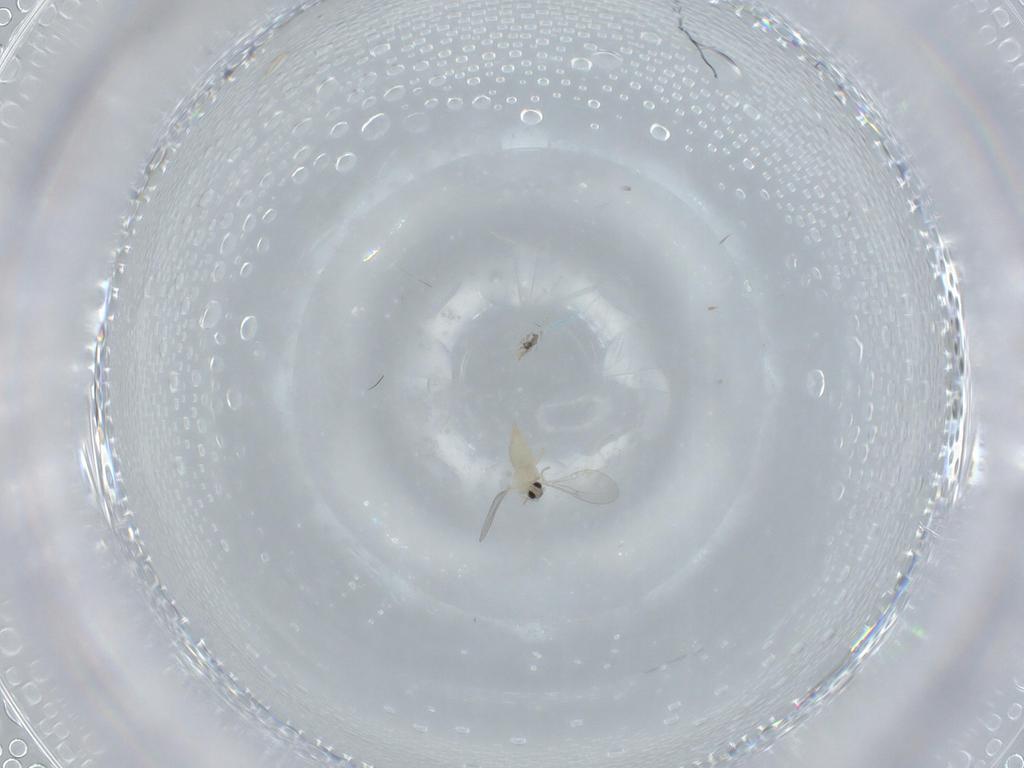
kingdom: Animalia
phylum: Arthropoda
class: Insecta
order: Diptera
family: Cecidomyiidae
